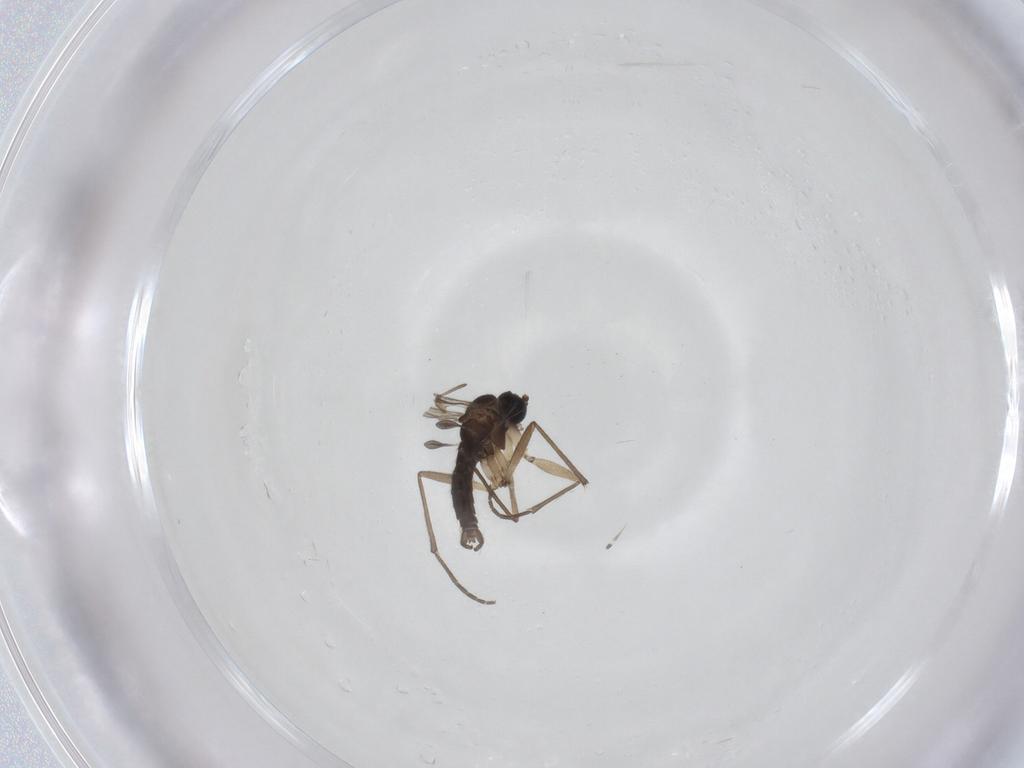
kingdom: Animalia
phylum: Arthropoda
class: Insecta
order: Diptera
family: Sciaridae
